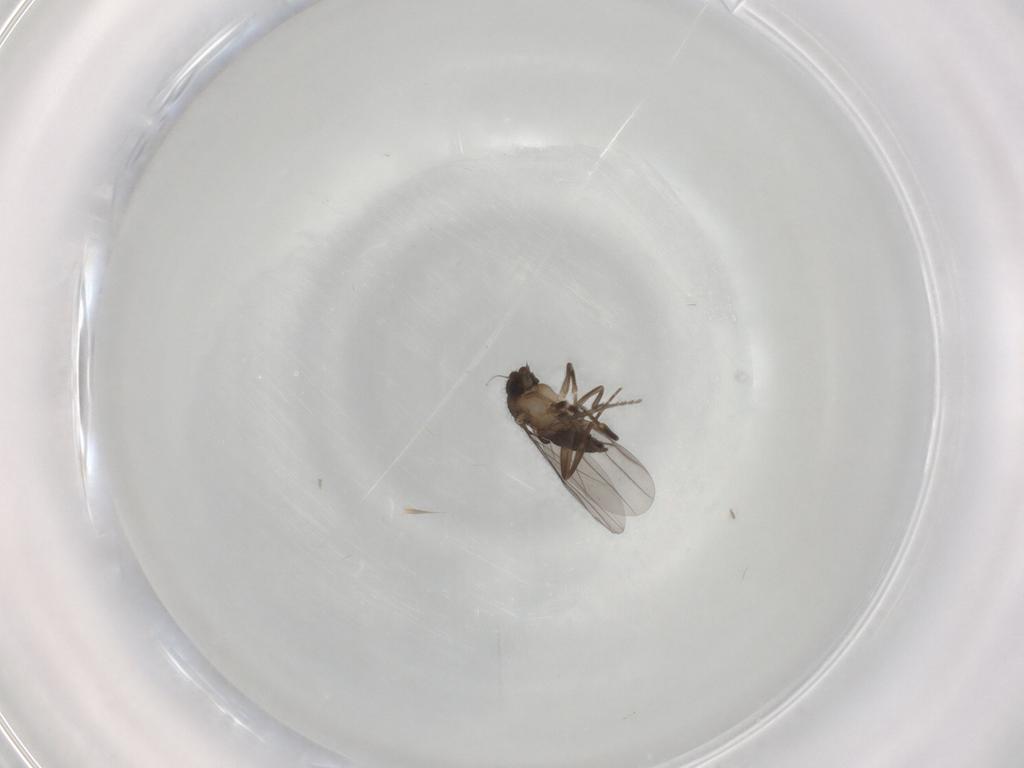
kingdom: Animalia
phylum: Arthropoda
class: Insecta
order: Diptera
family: Phoridae
